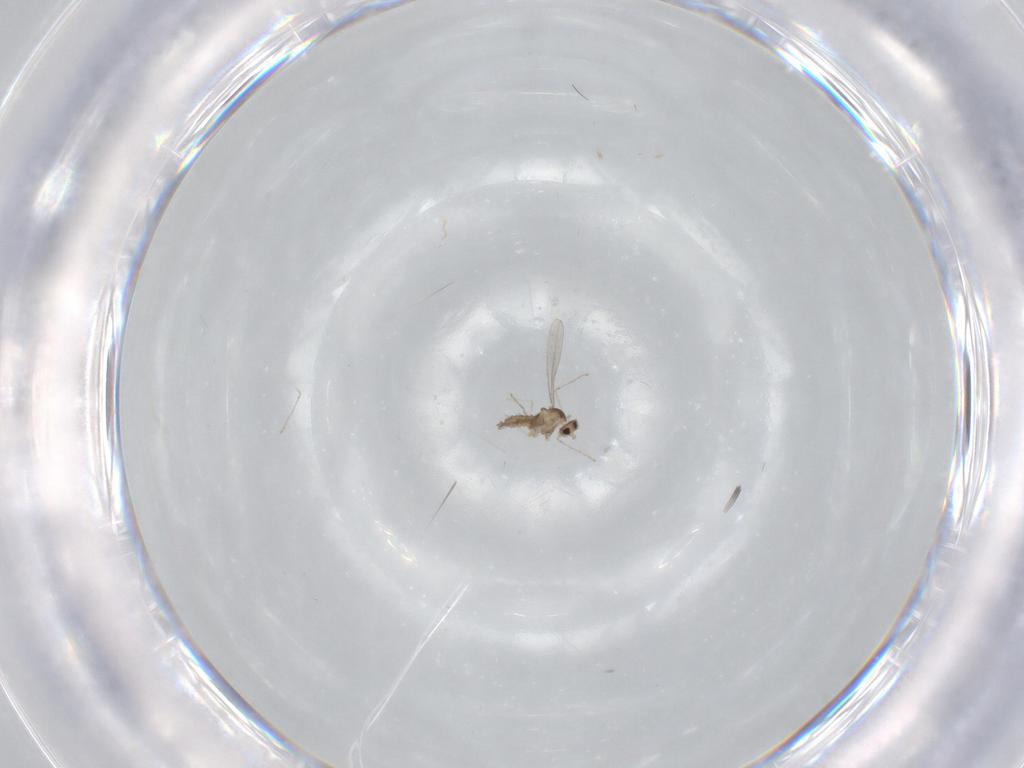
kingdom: Animalia
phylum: Arthropoda
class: Insecta
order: Diptera
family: Cecidomyiidae
